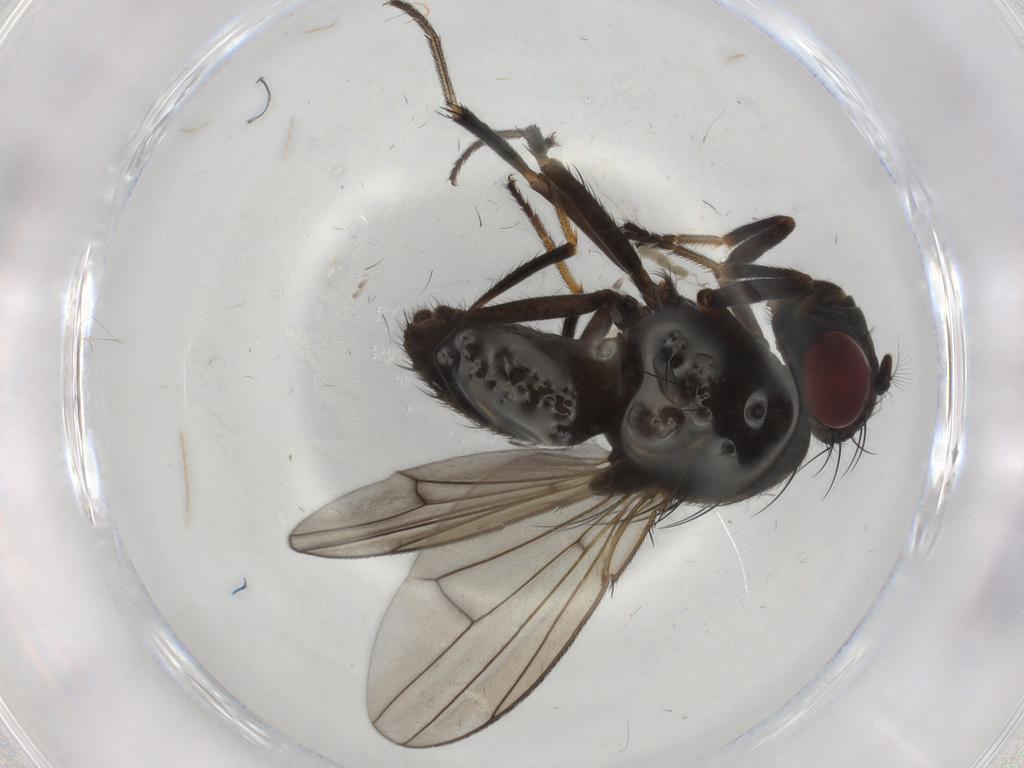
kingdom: Animalia
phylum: Arthropoda
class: Insecta
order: Diptera
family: Ephydridae
